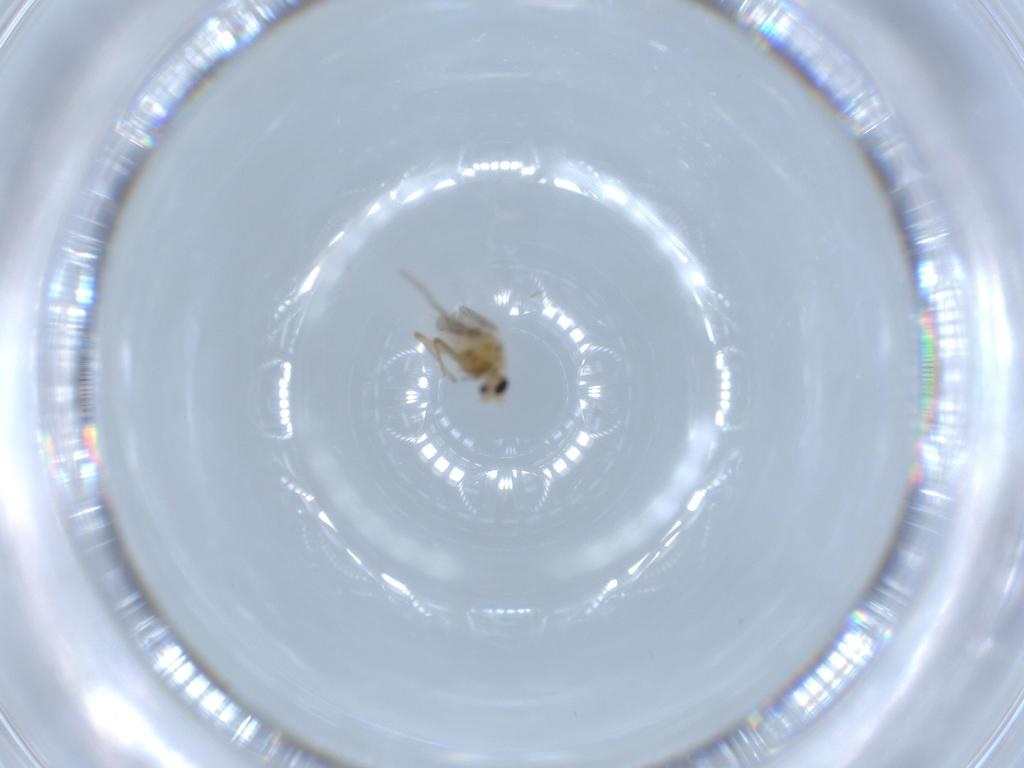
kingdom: Animalia
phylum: Arthropoda
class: Insecta
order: Diptera
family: Chironomidae
